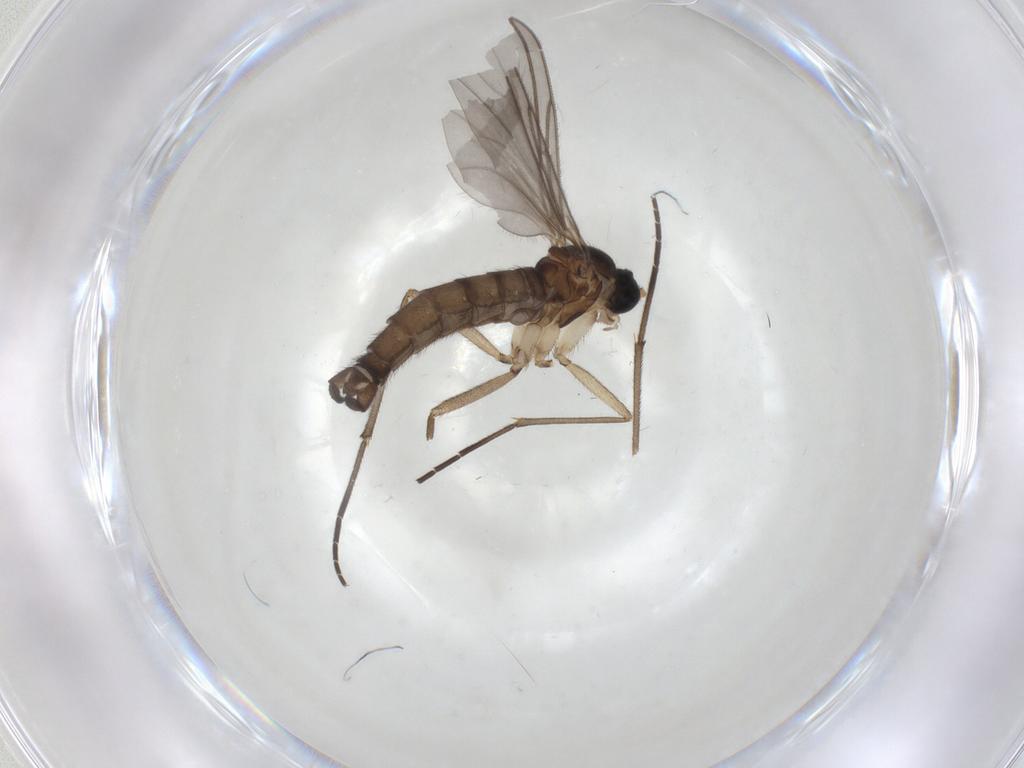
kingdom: Animalia
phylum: Arthropoda
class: Insecta
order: Diptera
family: Sciaridae
